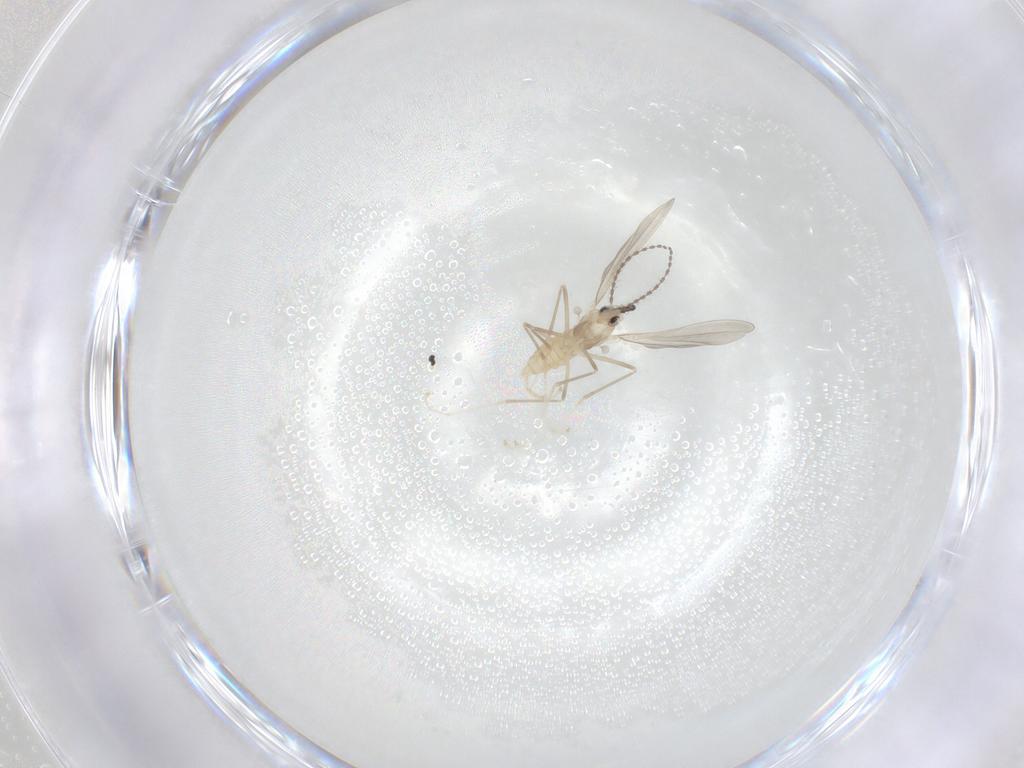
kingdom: Animalia
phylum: Arthropoda
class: Insecta
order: Diptera
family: Cecidomyiidae
